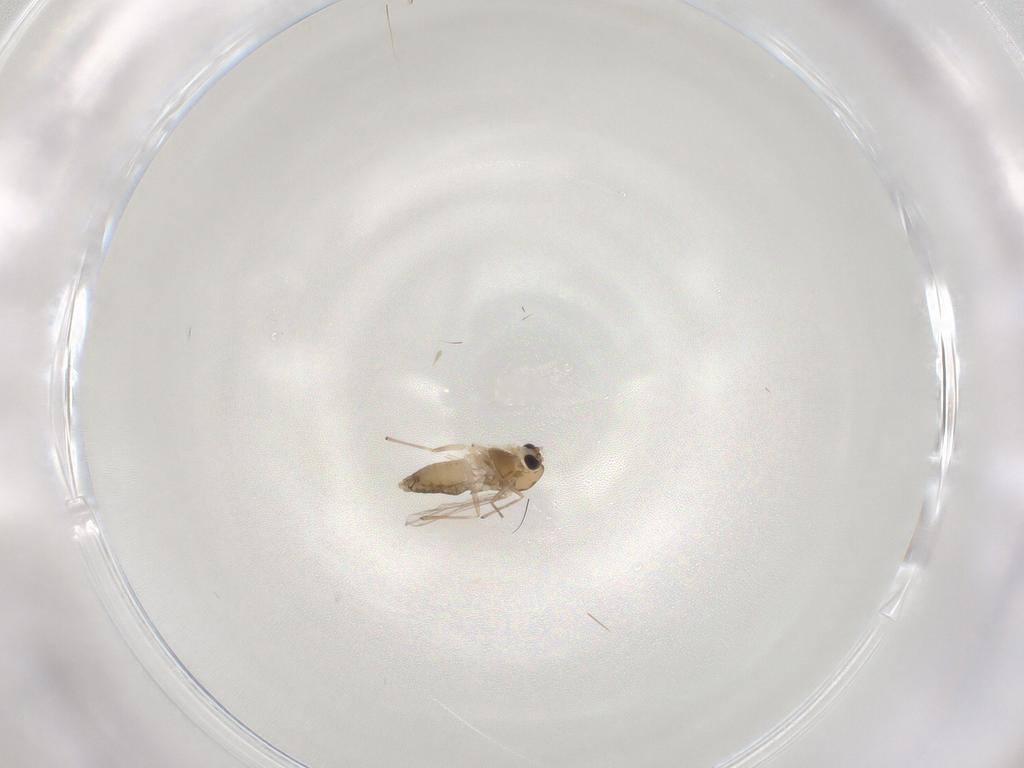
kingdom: Animalia
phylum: Arthropoda
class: Insecta
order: Diptera
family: Chironomidae
